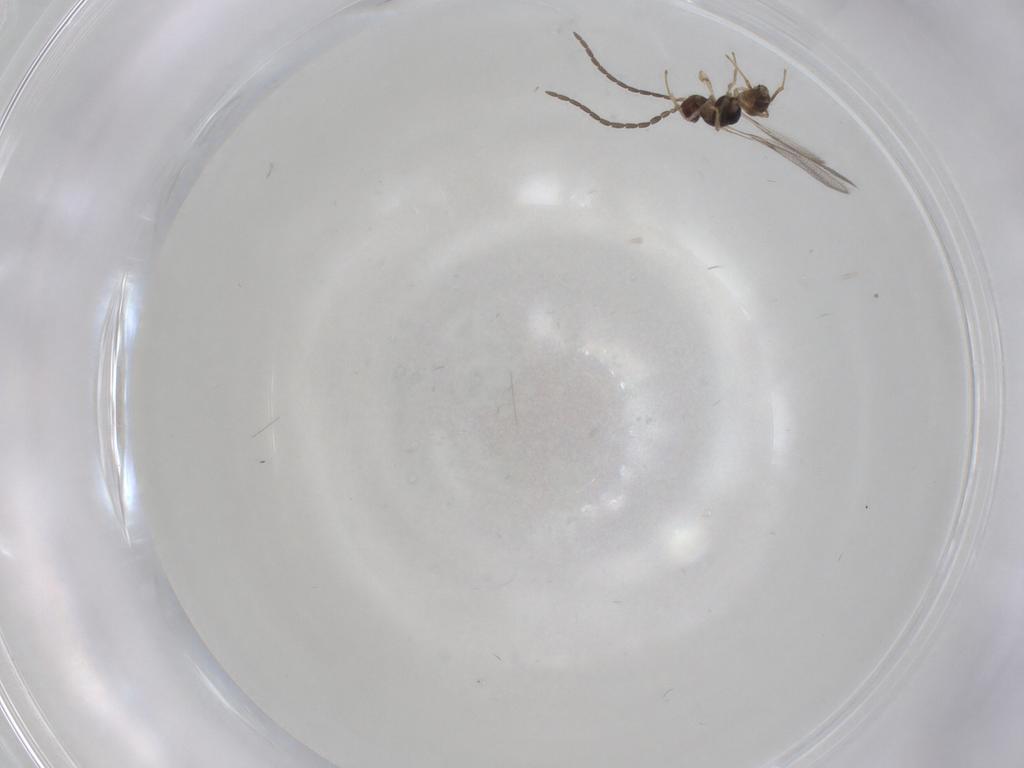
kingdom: Animalia
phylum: Arthropoda
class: Insecta
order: Hymenoptera
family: Mymaridae
